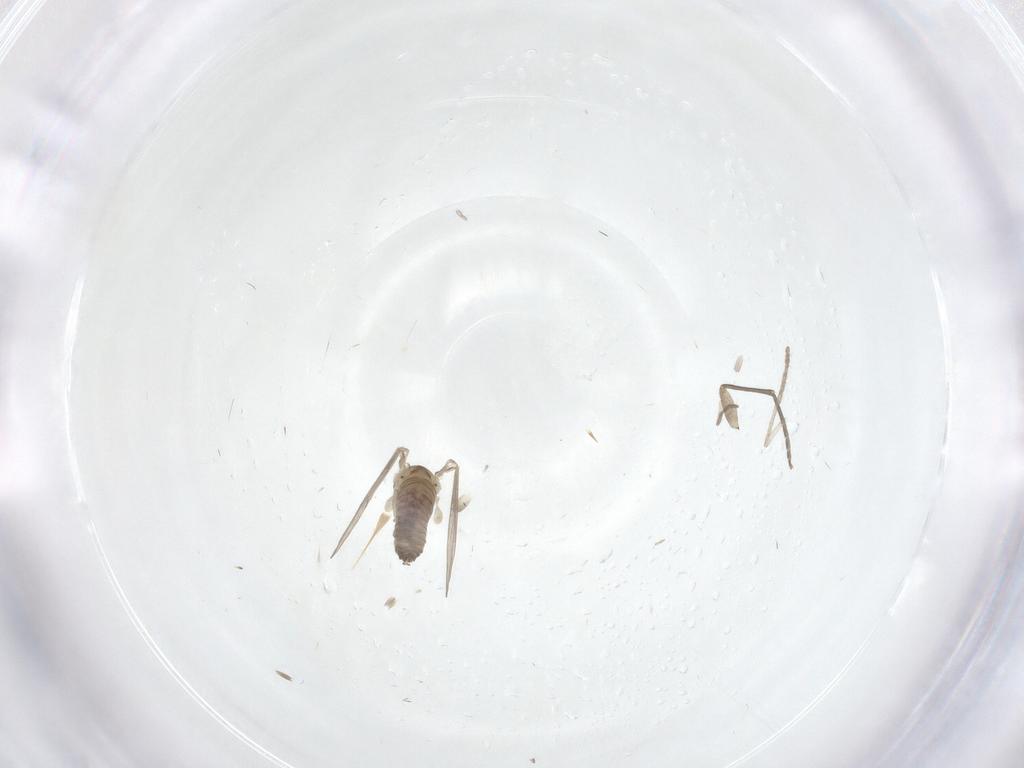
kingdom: Animalia
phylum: Arthropoda
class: Insecta
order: Diptera
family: Psychodidae
